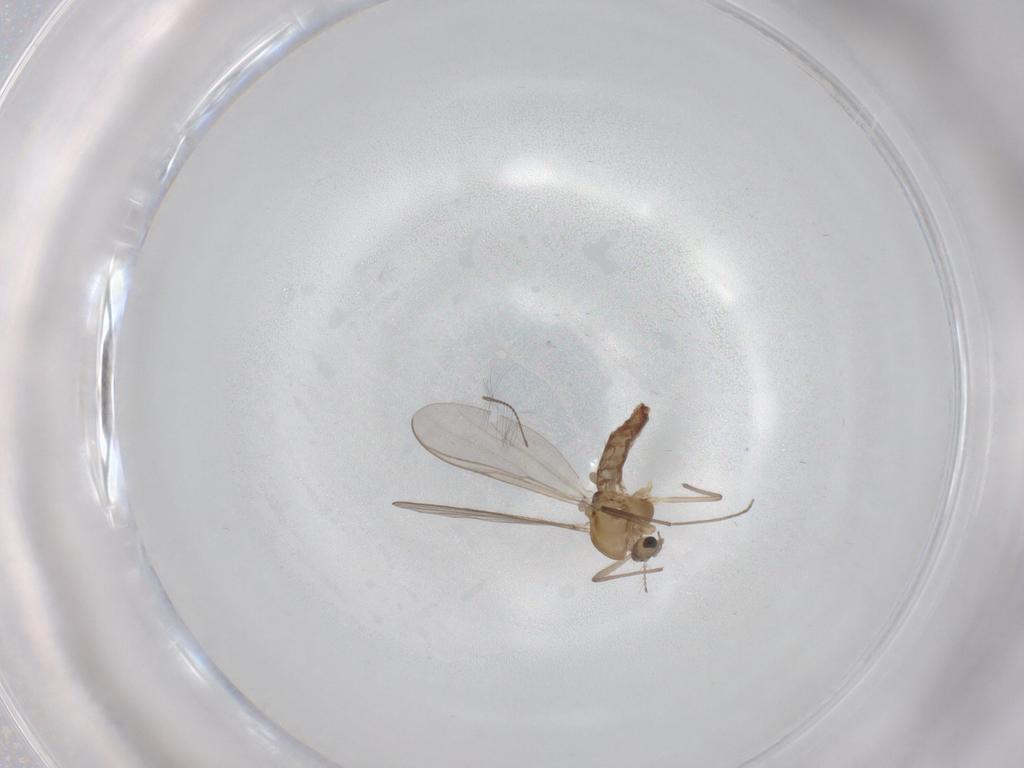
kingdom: Animalia
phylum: Arthropoda
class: Insecta
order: Diptera
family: Chironomidae
